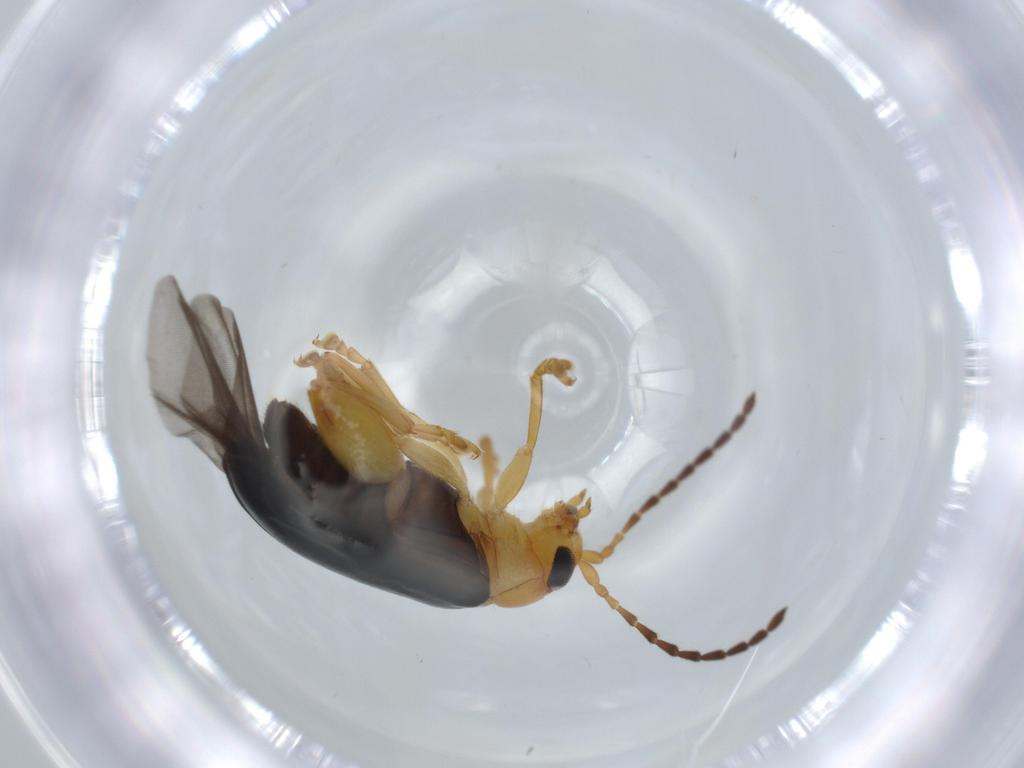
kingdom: Animalia
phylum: Arthropoda
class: Insecta
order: Coleoptera
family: Chrysomelidae
